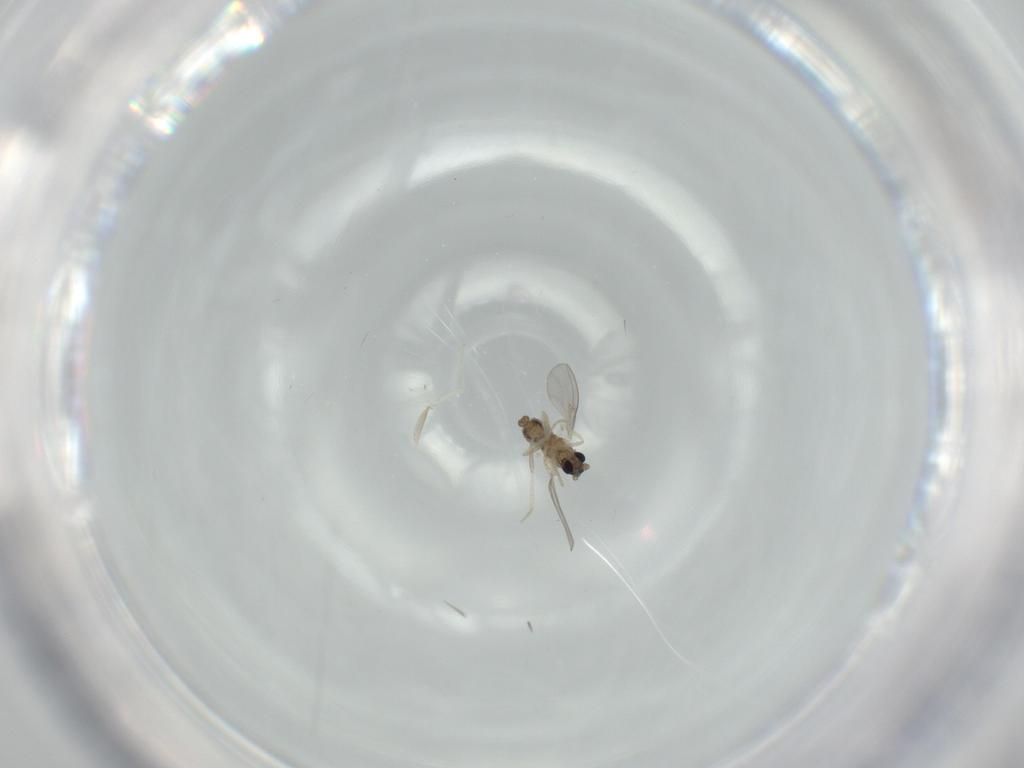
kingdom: Animalia
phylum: Arthropoda
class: Insecta
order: Diptera
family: Cecidomyiidae
